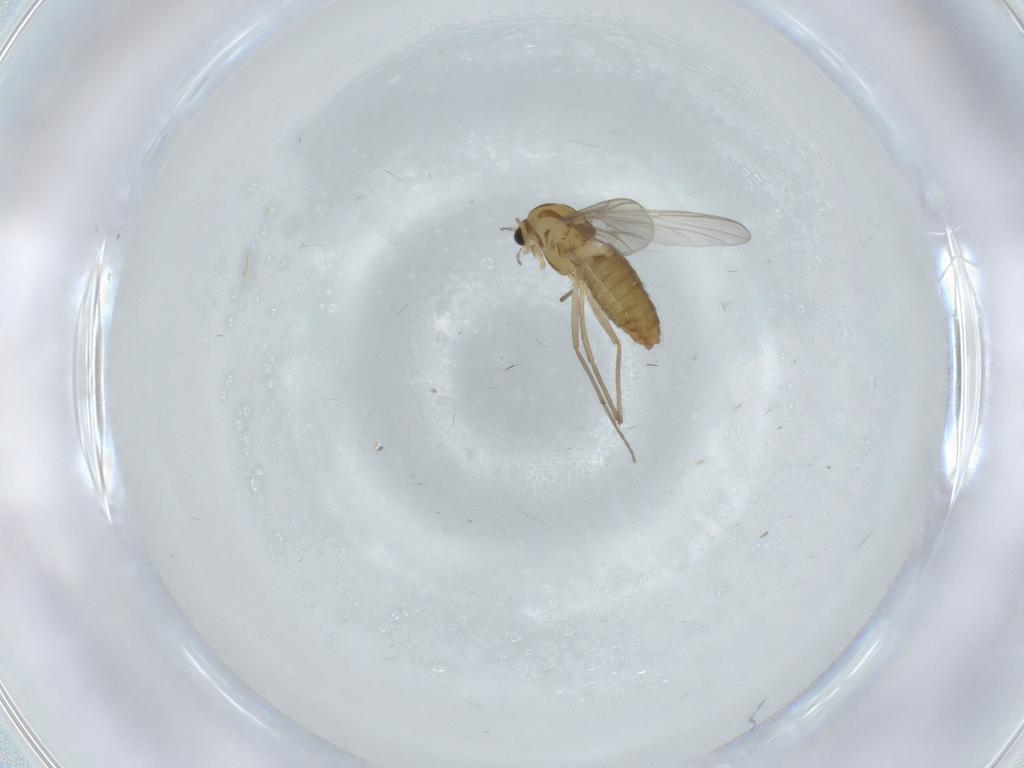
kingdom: Animalia
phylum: Arthropoda
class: Insecta
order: Diptera
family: Chironomidae
